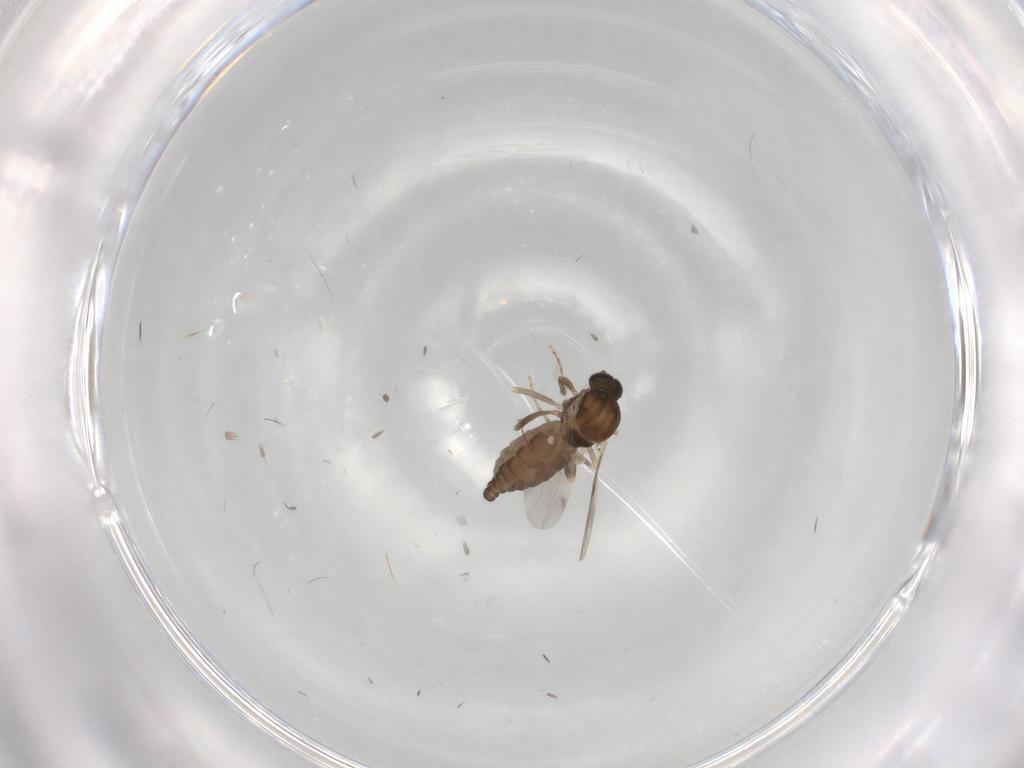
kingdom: Animalia
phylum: Arthropoda
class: Insecta
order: Diptera
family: Ceratopogonidae
